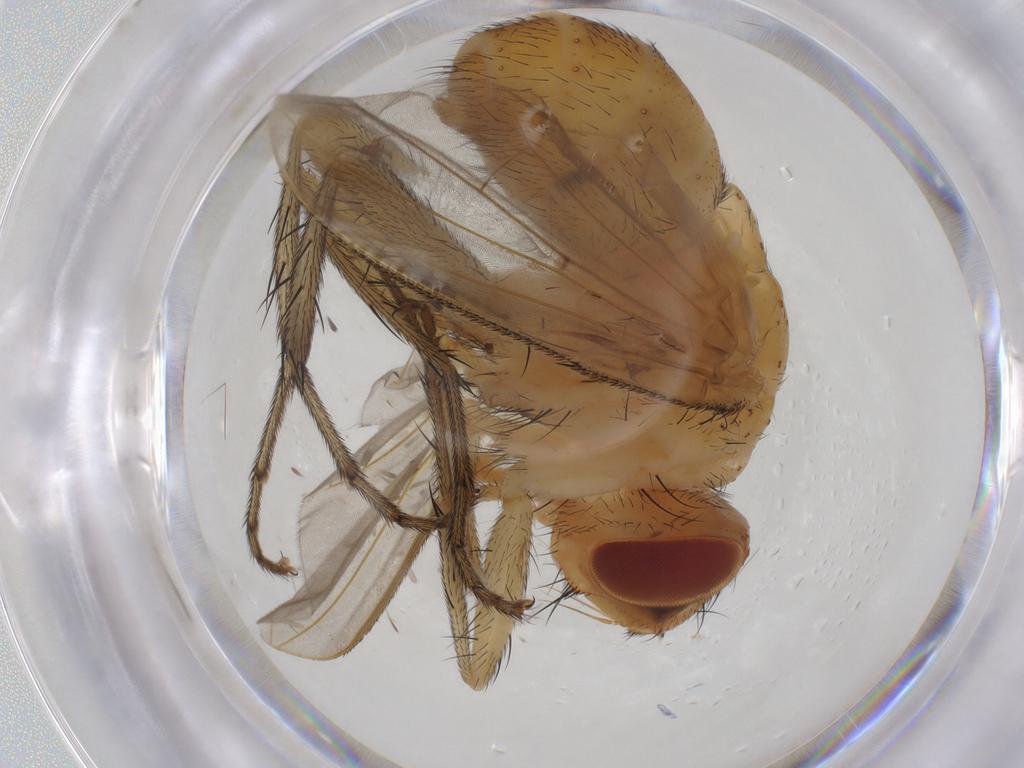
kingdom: Animalia
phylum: Arthropoda
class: Insecta
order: Diptera
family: Tachinidae
